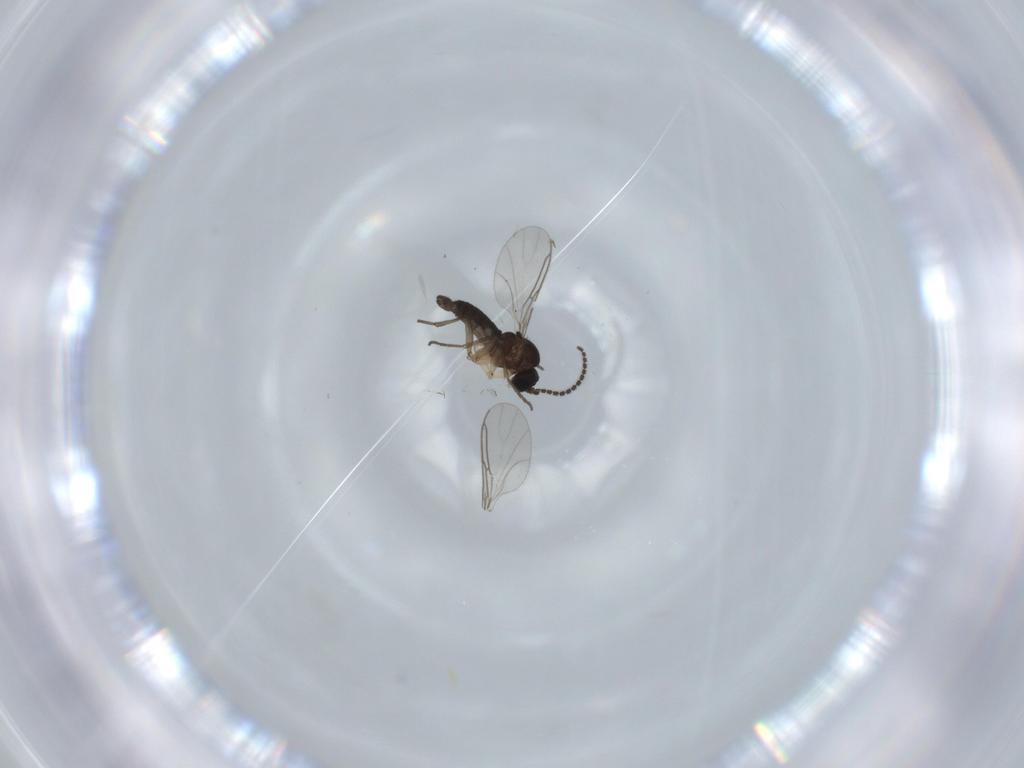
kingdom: Animalia
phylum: Arthropoda
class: Insecta
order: Diptera
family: Sciaridae
